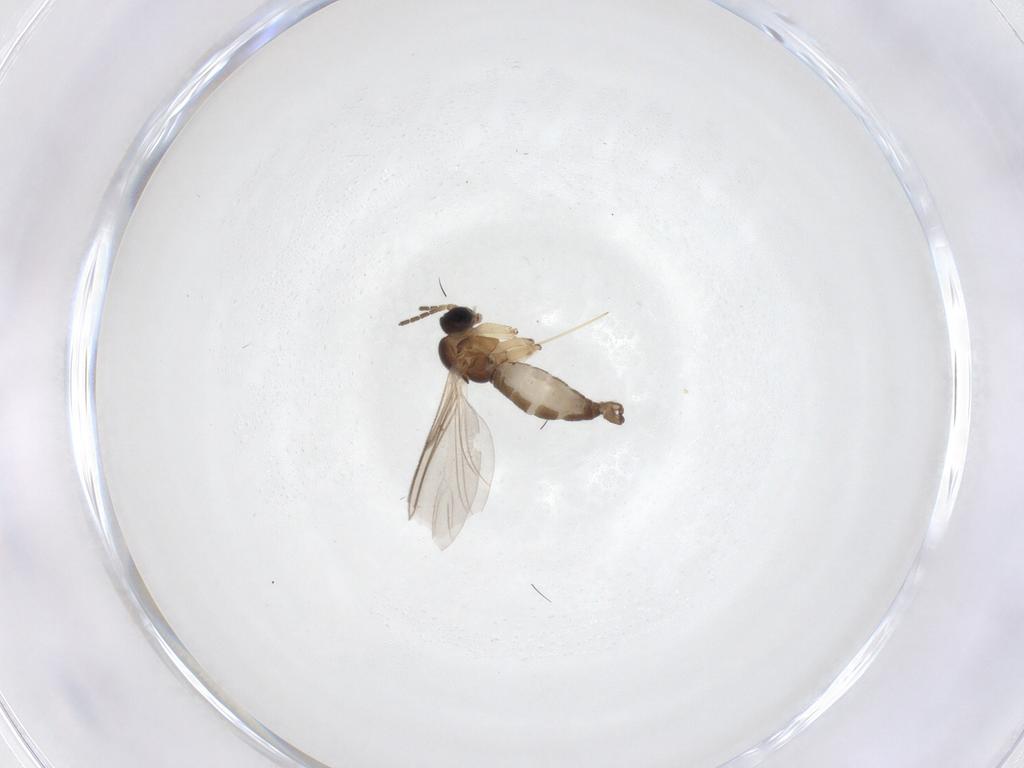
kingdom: Animalia
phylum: Arthropoda
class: Insecta
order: Diptera
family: Sciaridae
